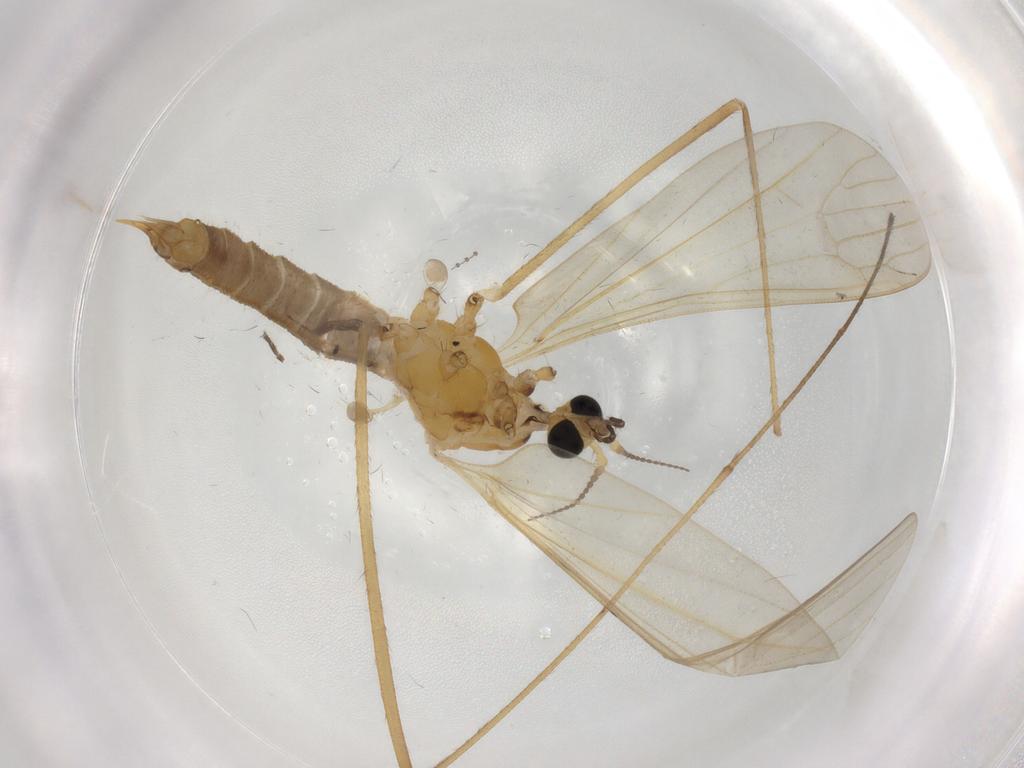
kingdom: Animalia
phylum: Arthropoda
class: Insecta
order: Diptera
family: Limoniidae
